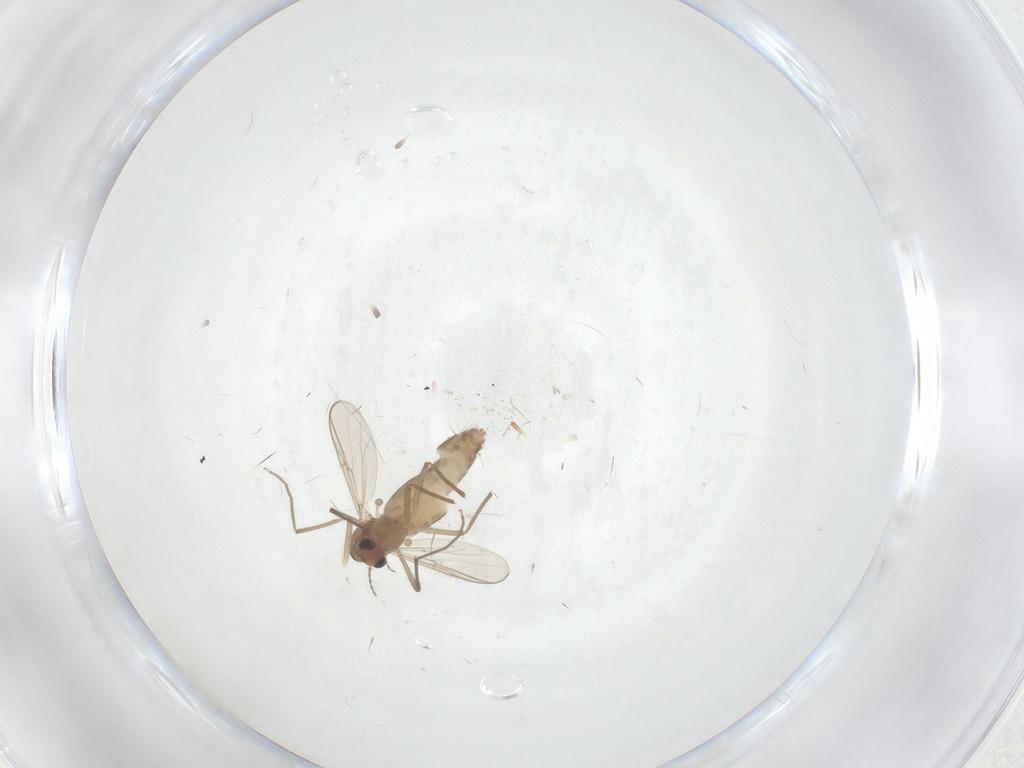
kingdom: Animalia
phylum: Arthropoda
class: Insecta
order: Diptera
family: Chironomidae
